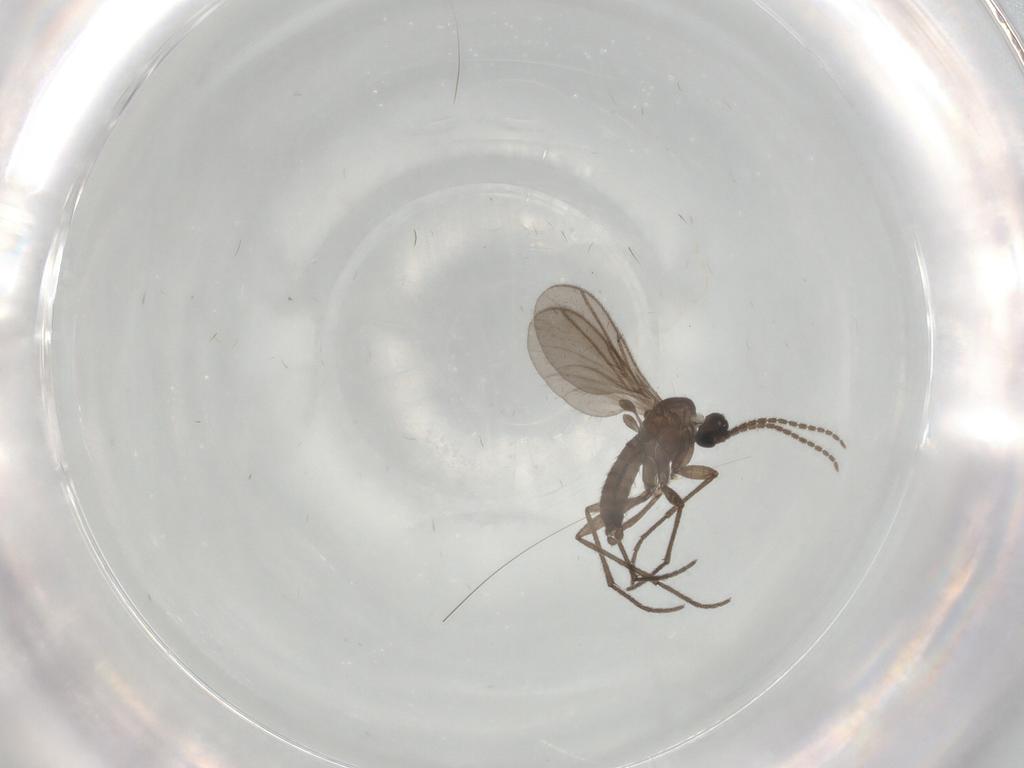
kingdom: Animalia
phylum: Arthropoda
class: Insecta
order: Diptera
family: Sciaridae
